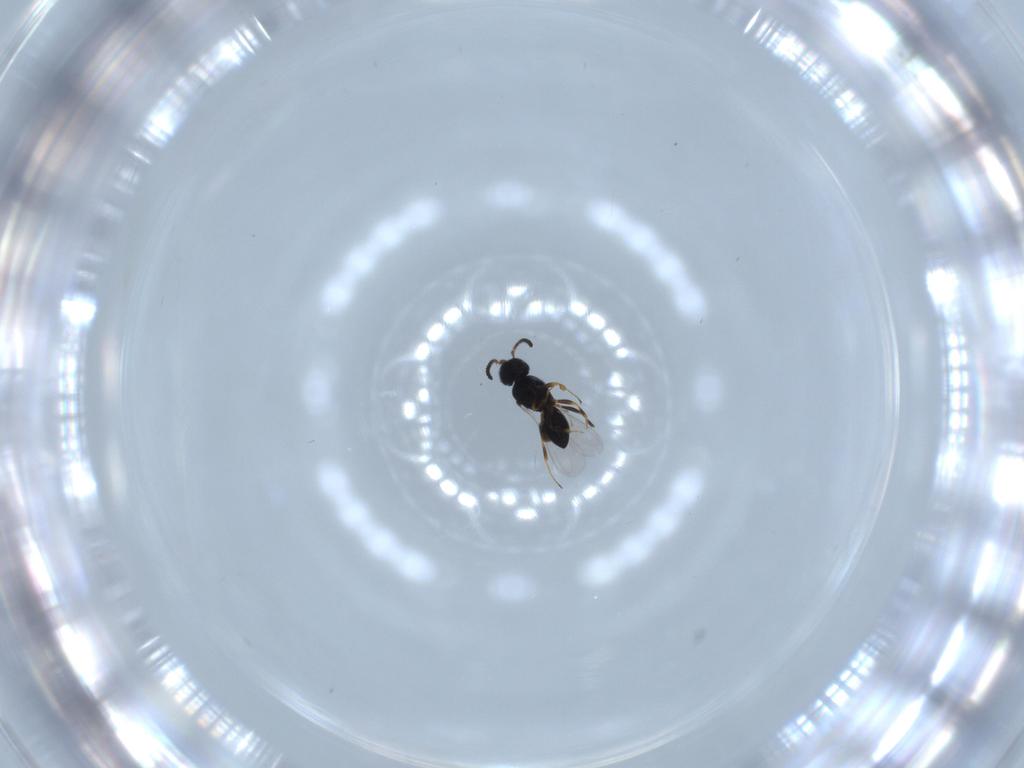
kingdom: Animalia
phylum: Arthropoda
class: Insecta
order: Hymenoptera
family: Scelionidae
